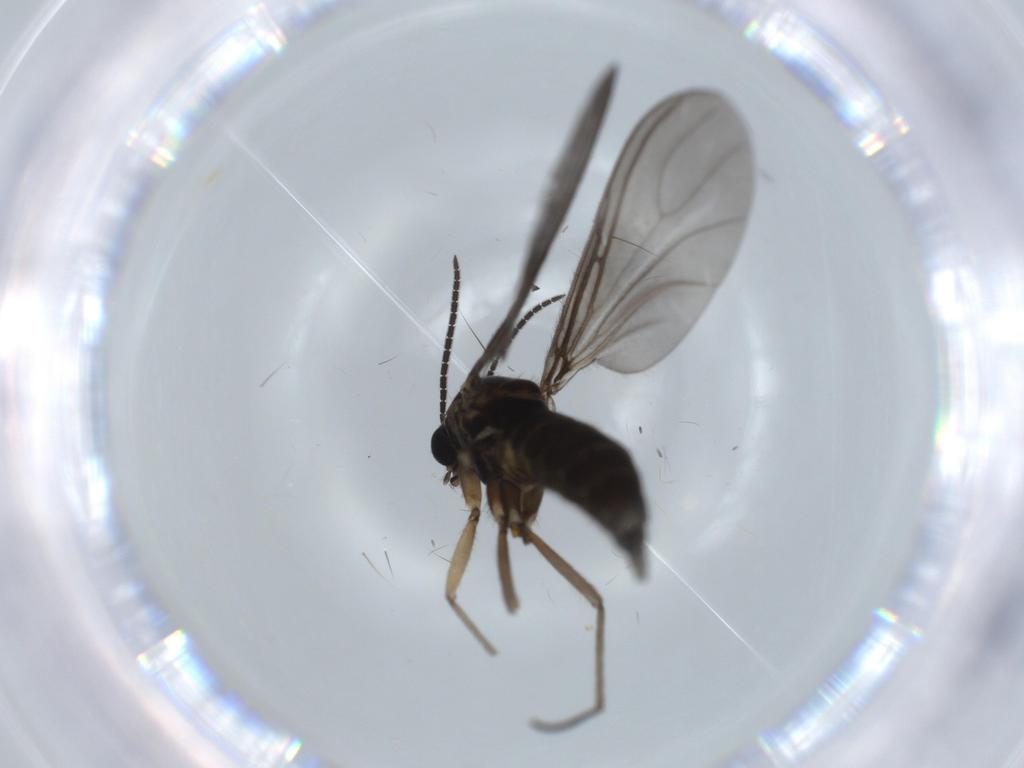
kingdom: Animalia
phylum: Arthropoda
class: Insecta
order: Diptera
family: Sciaridae
